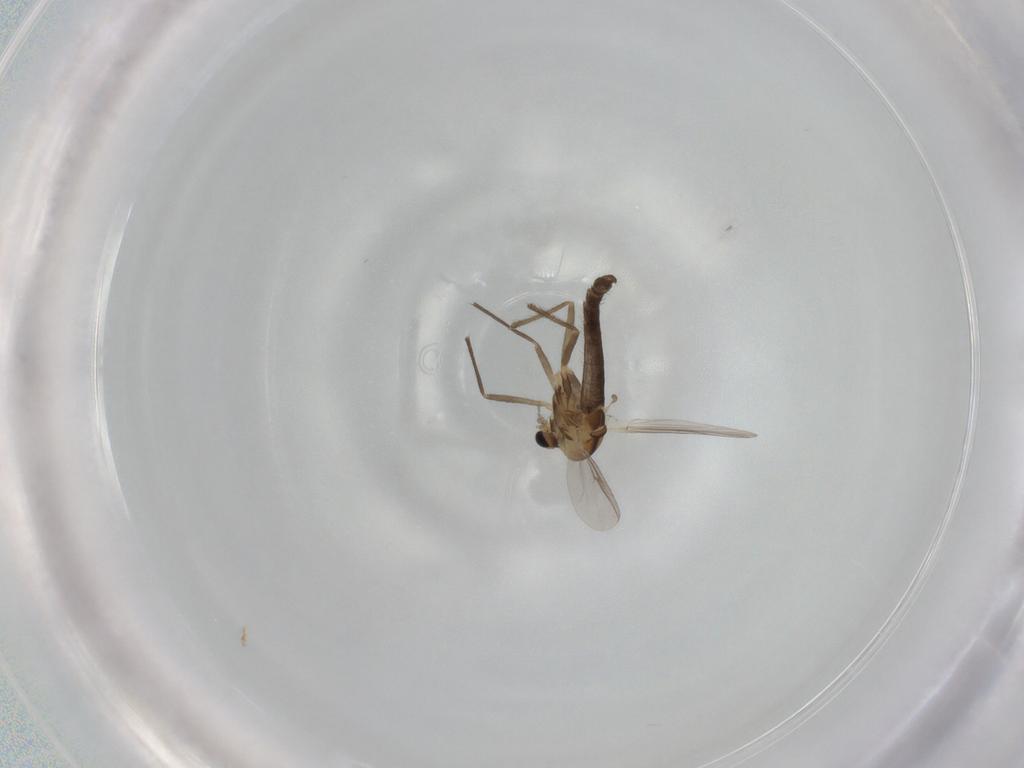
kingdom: Animalia
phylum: Arthropoda
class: Insecta
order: Diptera
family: Chironomidae
